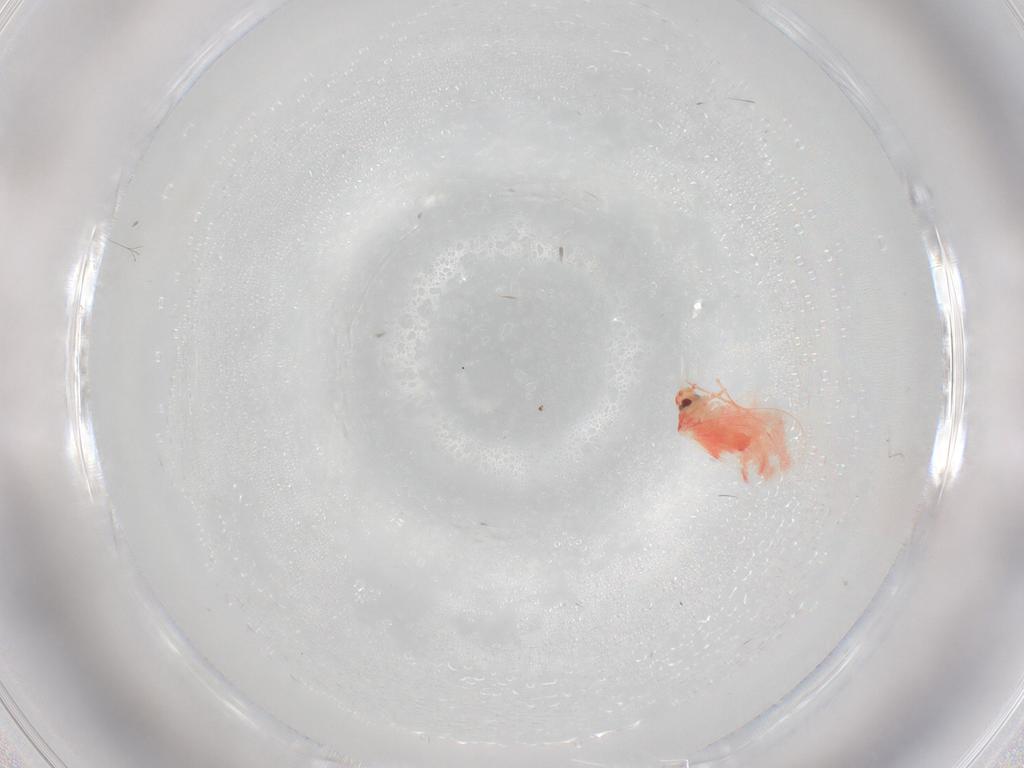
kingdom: Animalia
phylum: Arthropoda
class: Insecta
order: Hemiptera
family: Aleyrodidae
